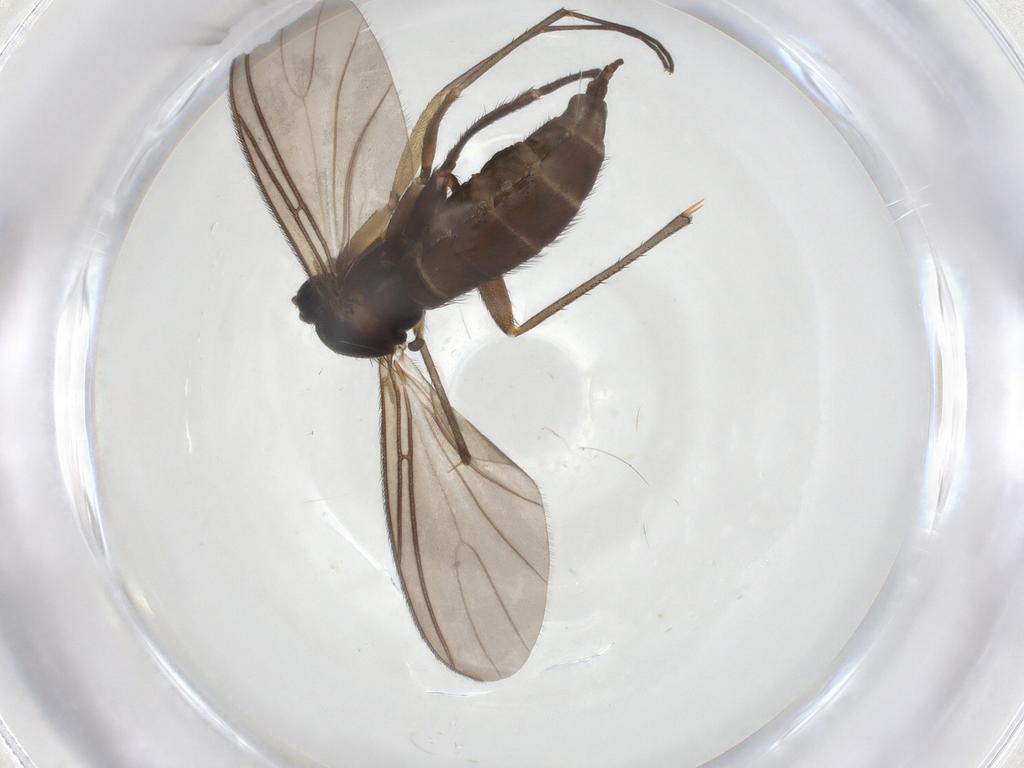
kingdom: Animalia
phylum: Arthropoda
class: Insecta
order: Diptera
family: Sciaridae
